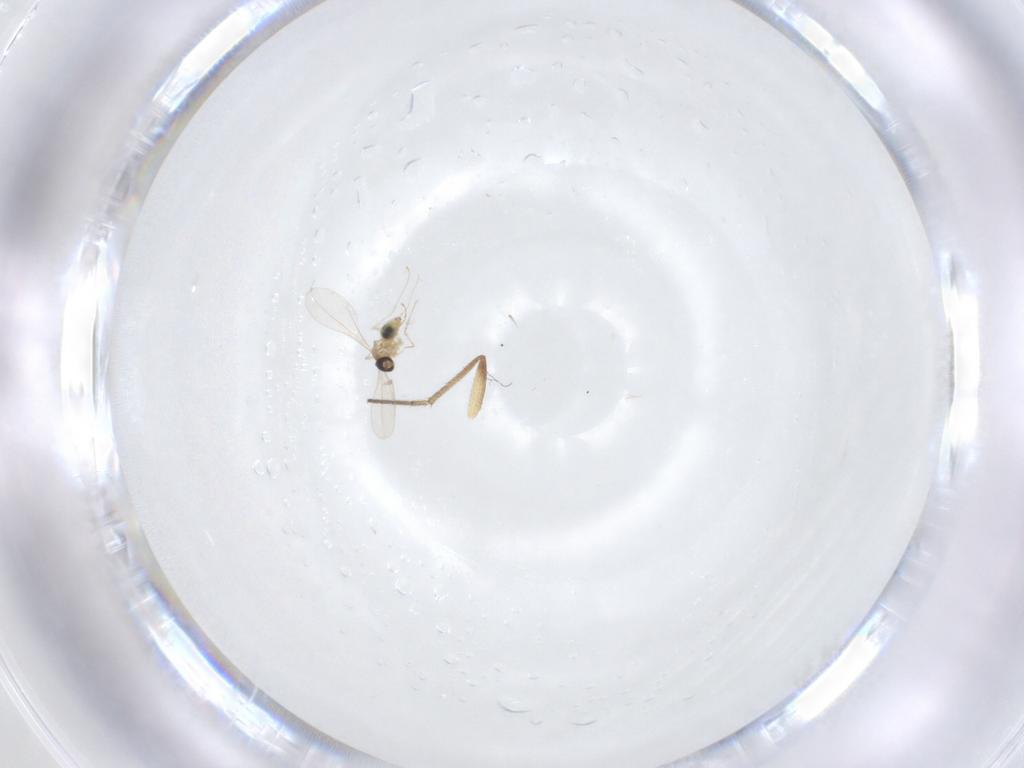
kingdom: Animalia
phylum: Arthropoda
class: Insecta
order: Diptera
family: Dolichopodidae
